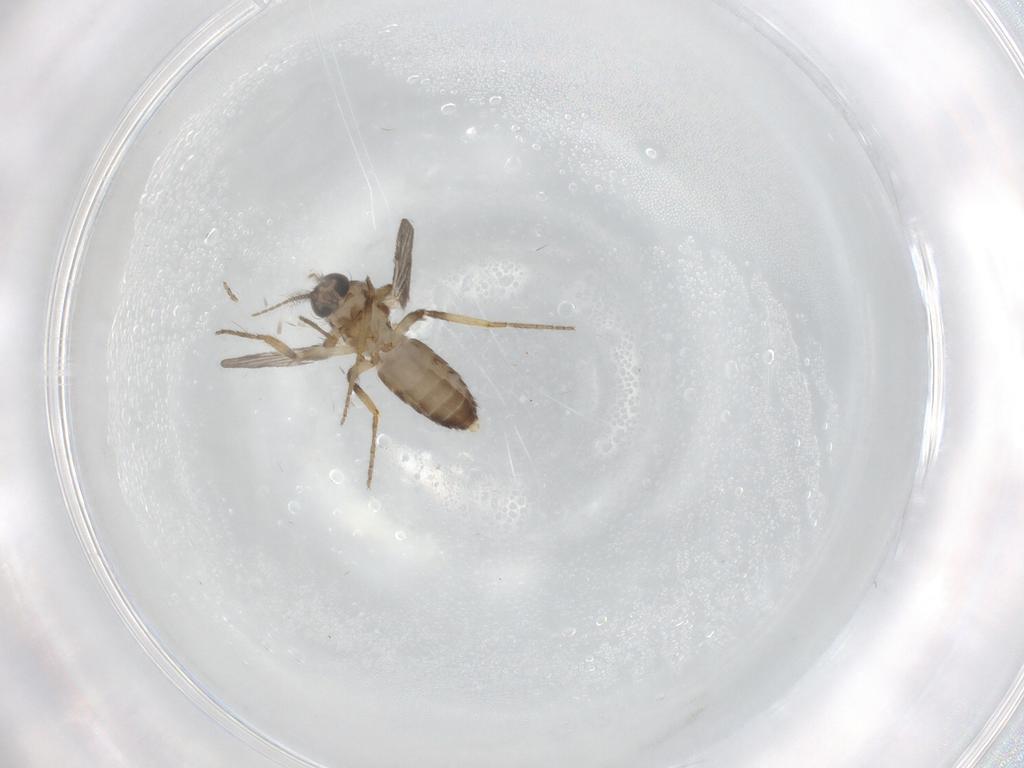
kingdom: Animalia
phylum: Arthropoda
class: Insecta
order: Diptera
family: Ceratopogonidae
